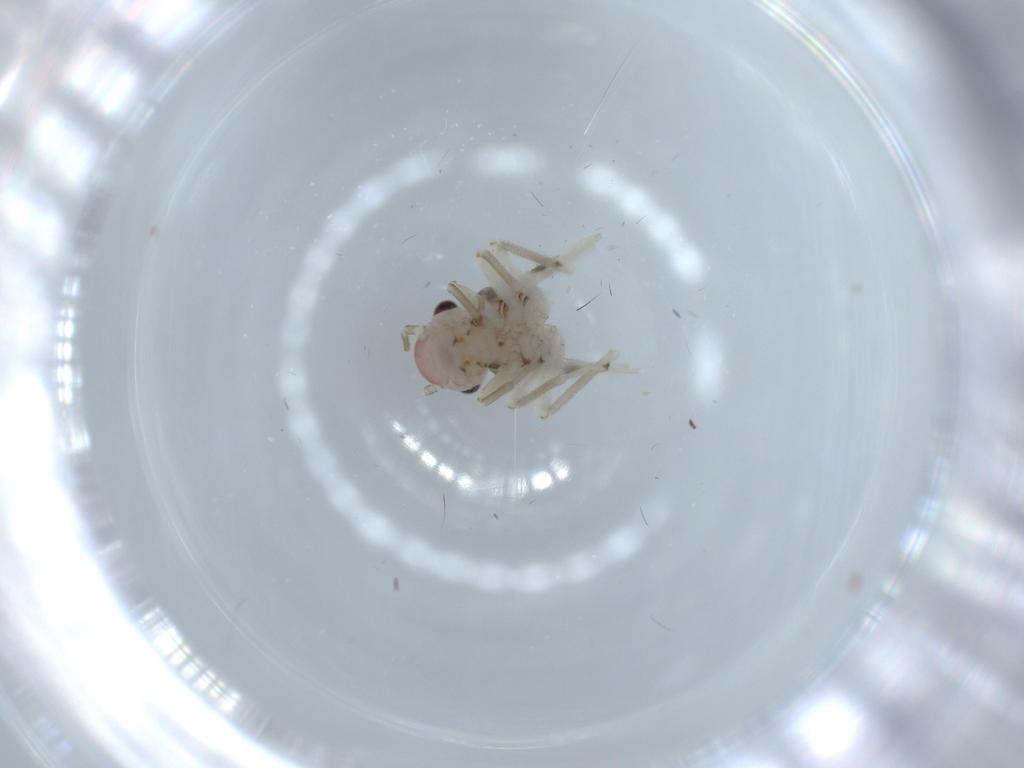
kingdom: Animalia
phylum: Arthropoda
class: Insecta
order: Psocodea
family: Amphipsocidae
